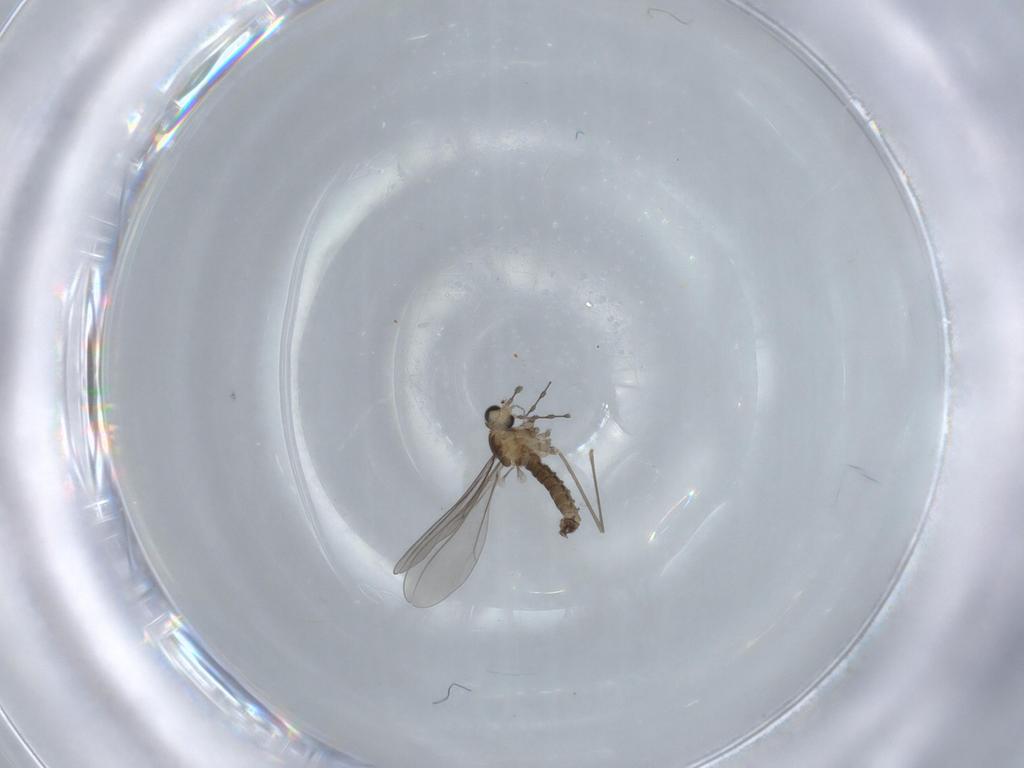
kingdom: Animalia
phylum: Arthropoda
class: Insecta
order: Diptera
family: Cecidomyiidae
